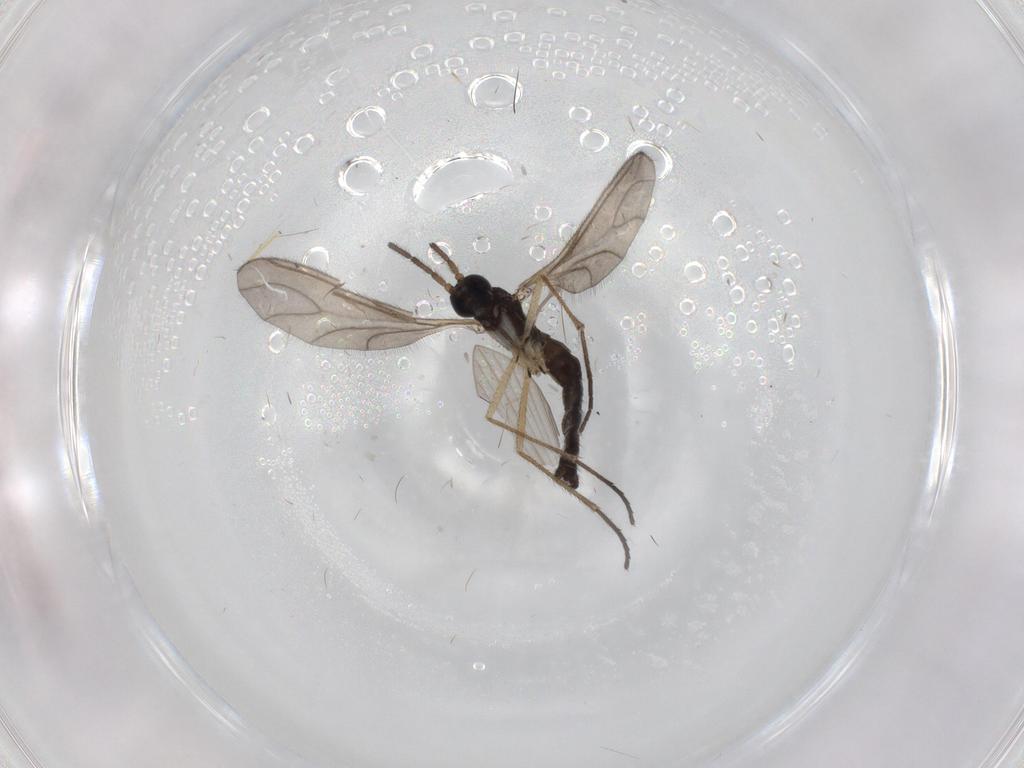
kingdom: Animalia
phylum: Arthropoda
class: Insecta
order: Diptera
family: Sciaridae
